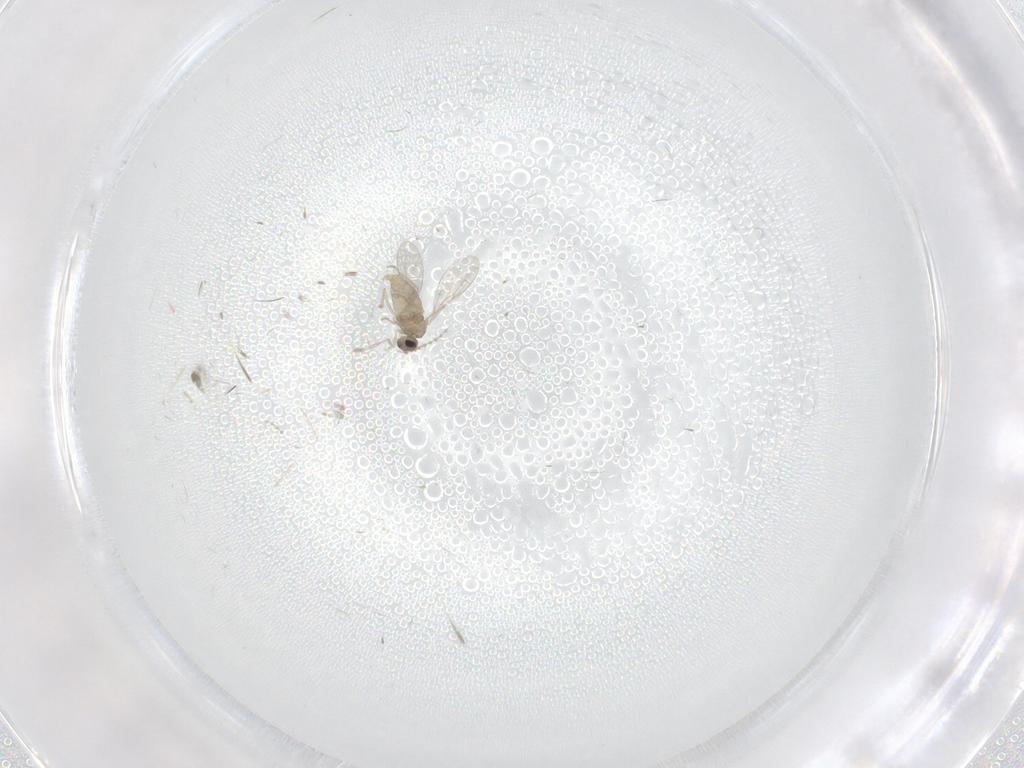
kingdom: Animalia
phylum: Arthropoda
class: Insecta
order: Diptera
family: Cecidomyiidae
